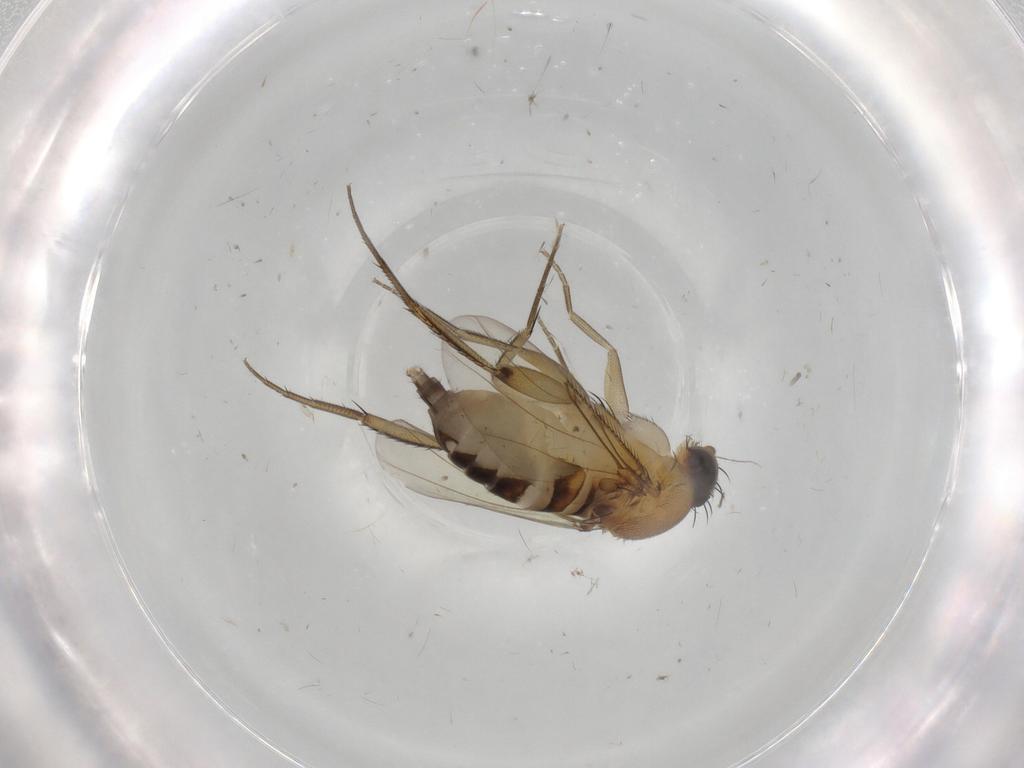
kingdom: Animalia
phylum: Arthropoda
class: Insecta
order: Diptera
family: Phoridae
